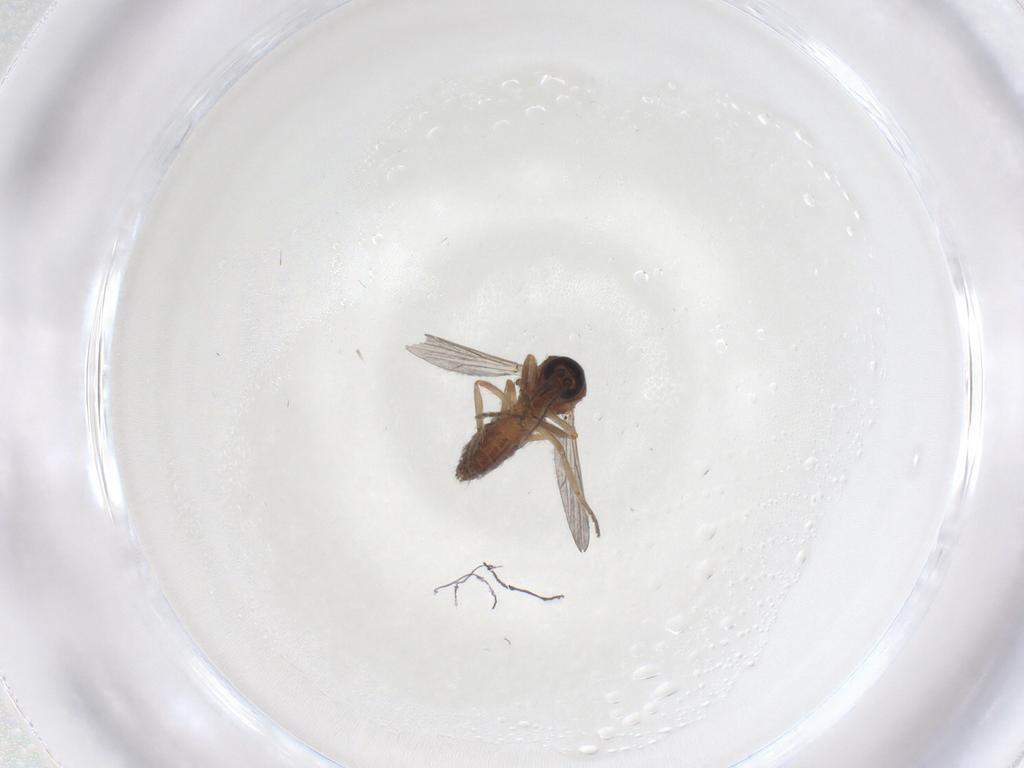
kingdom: Animalia
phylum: Arthropoda
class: Insecta
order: Diptera
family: Ceratopogonidae
